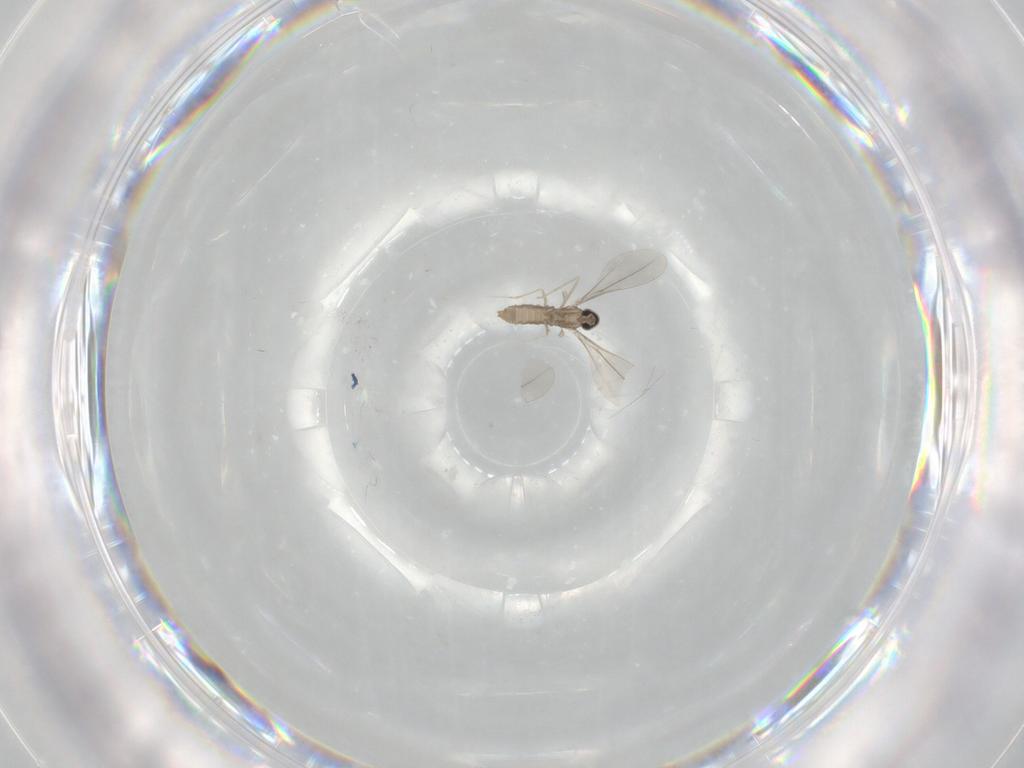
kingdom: Animalia
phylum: Arthropoda
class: Insecta
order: Diptera
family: Cecidomyiidae
